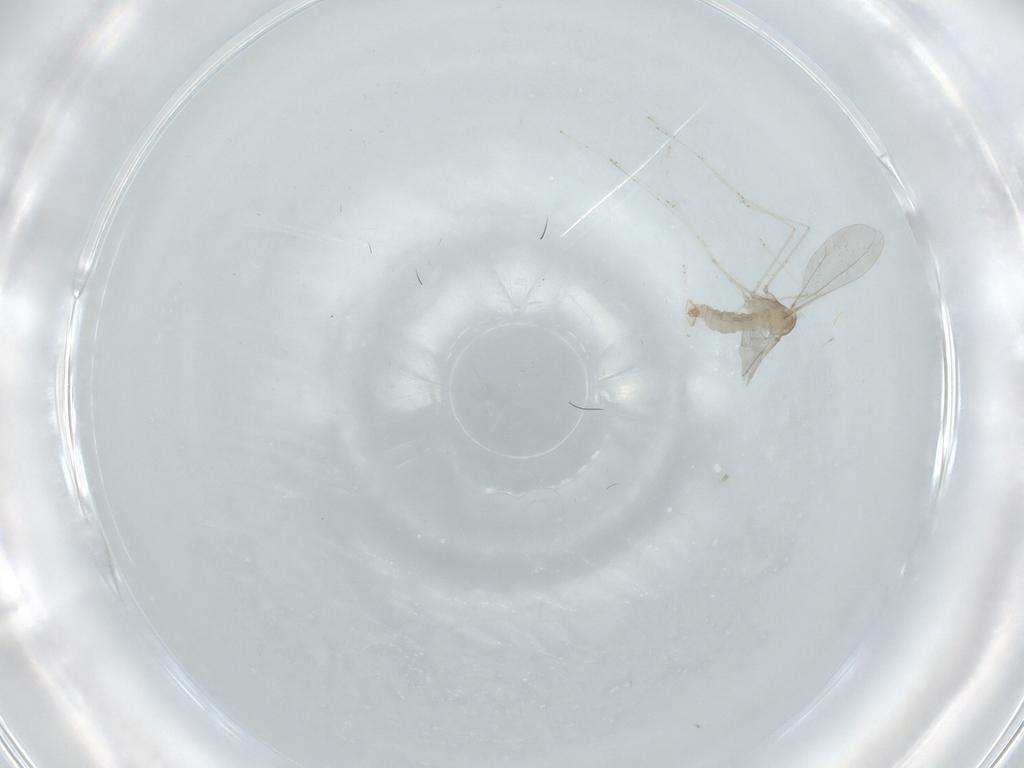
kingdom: Animalia
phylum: Arthropoda
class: Insecta
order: Diptera
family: Cecidomyiidae
